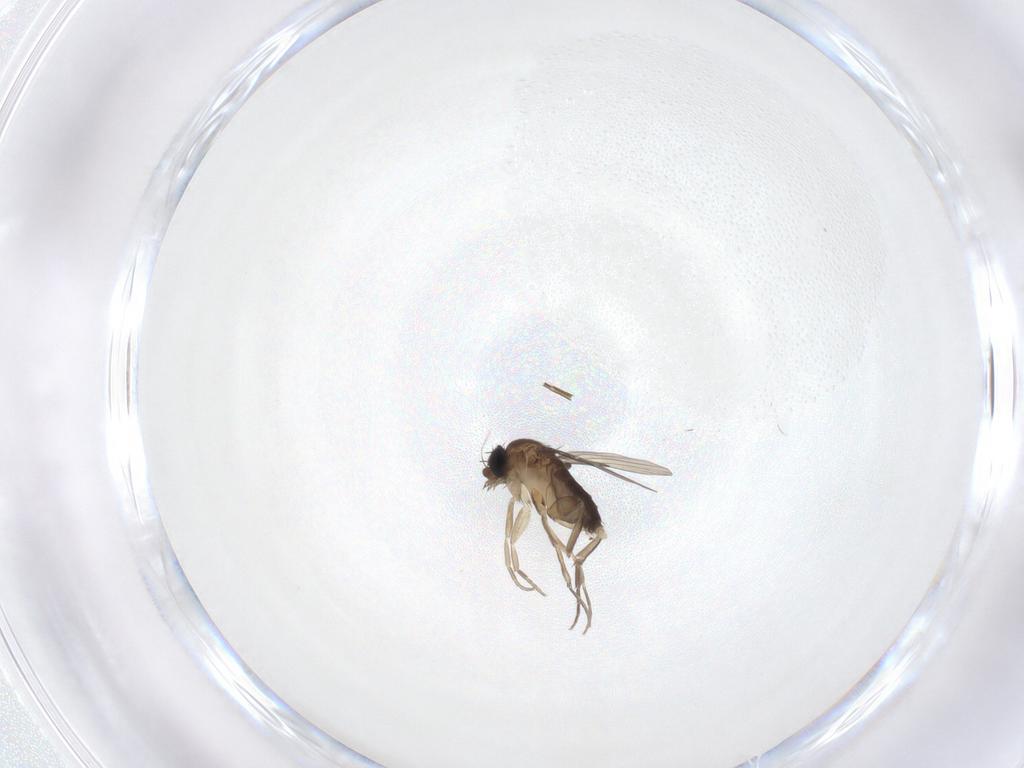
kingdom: Animalia
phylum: Arthropoda
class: Insecta
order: Diptera
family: Phoridae
